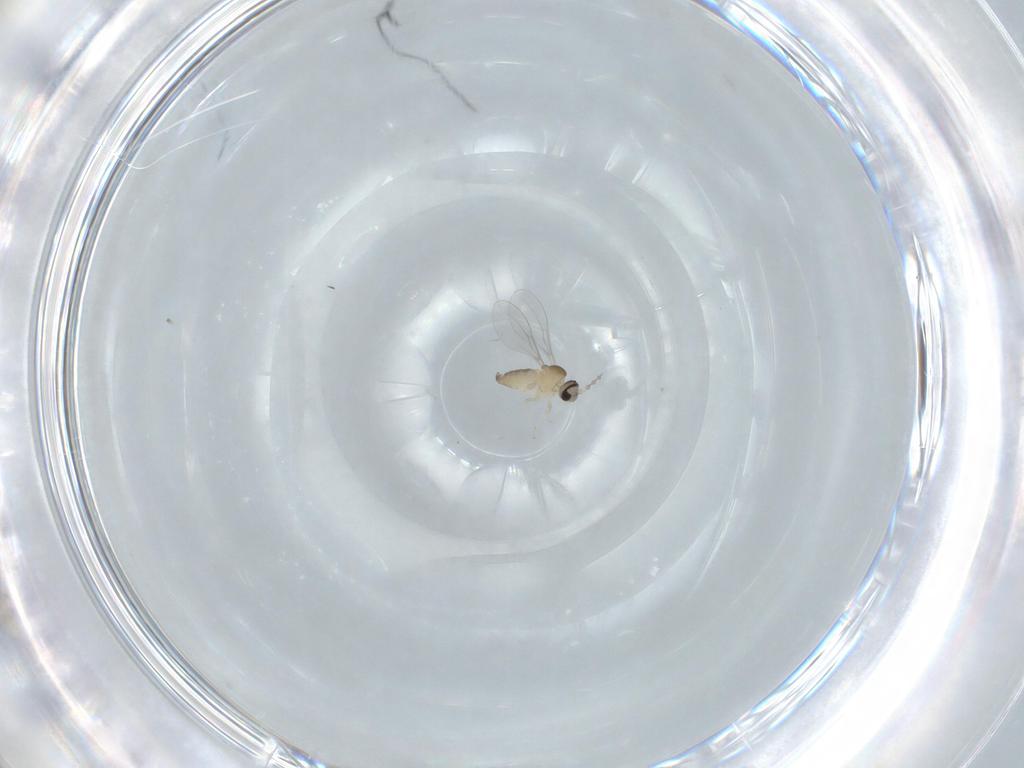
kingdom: Animalia
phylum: Arthropoda
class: Insecta
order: Diptera
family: Cecidomyiidae
